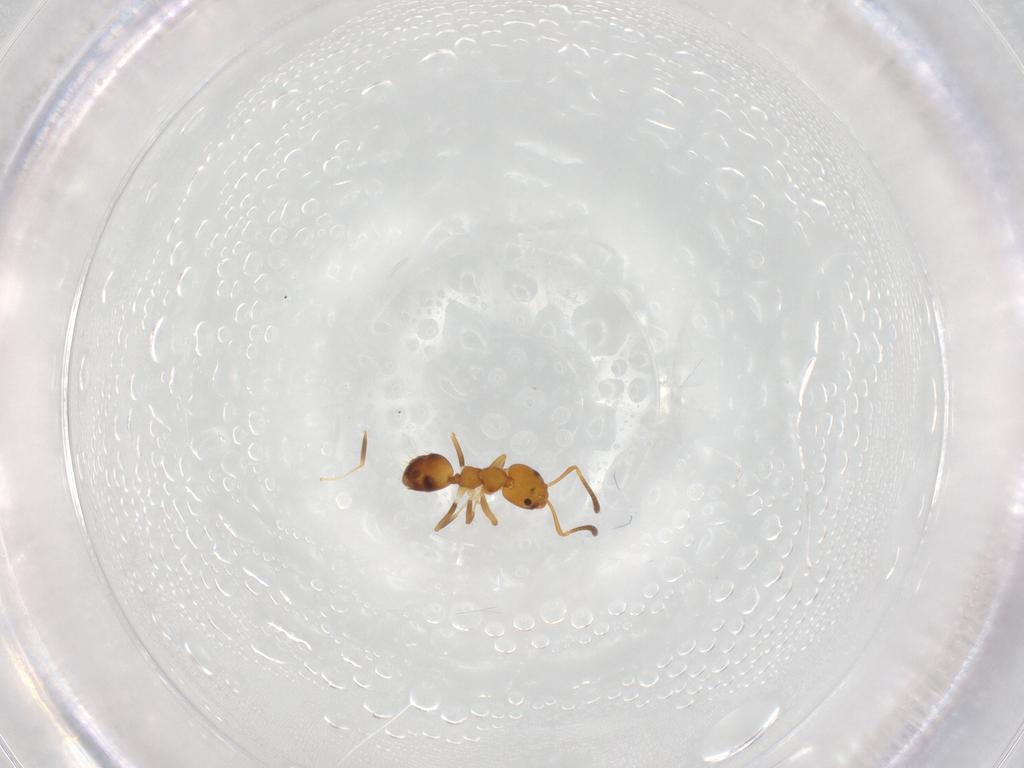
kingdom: Animalia
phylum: Arthropoda
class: Insecta
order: Hymenoptera
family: Formicidae
